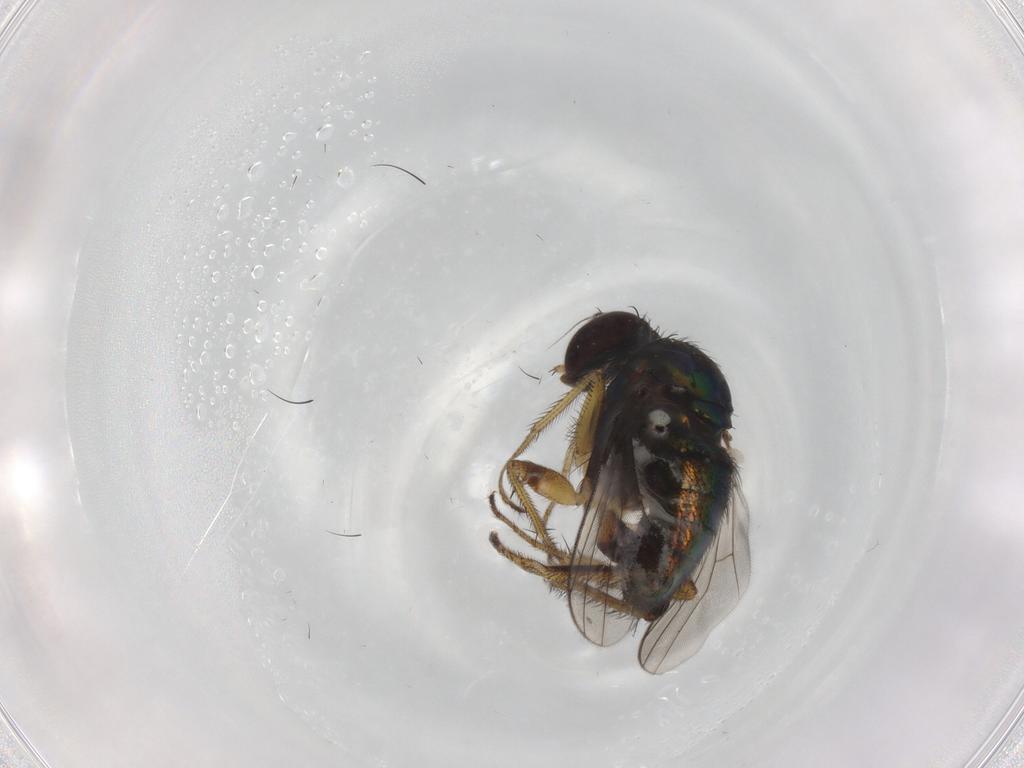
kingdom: Animalia
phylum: Arthropoda
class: Insecta
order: Diptera
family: Dolichopodidae
